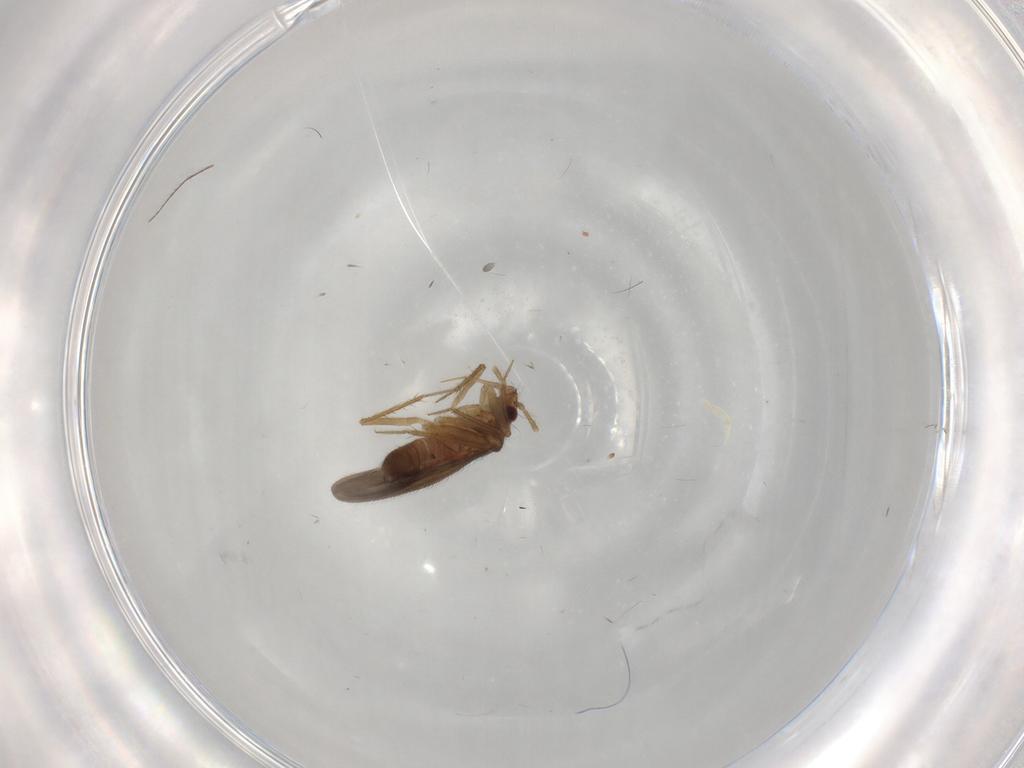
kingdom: Animalia
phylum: Arthropoda
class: Insecta
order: Hemiptera
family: Ceratocombidae
